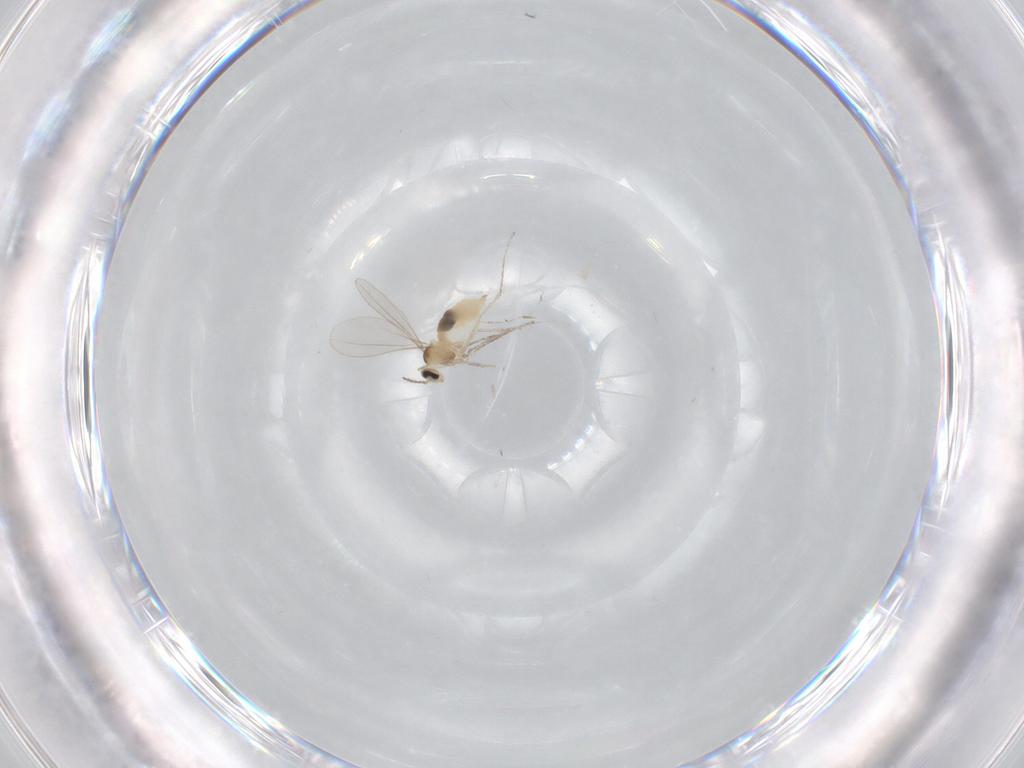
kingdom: Animalia
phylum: Arthropoda
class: Insecta
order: Diptera
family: Cecidomyiidae
